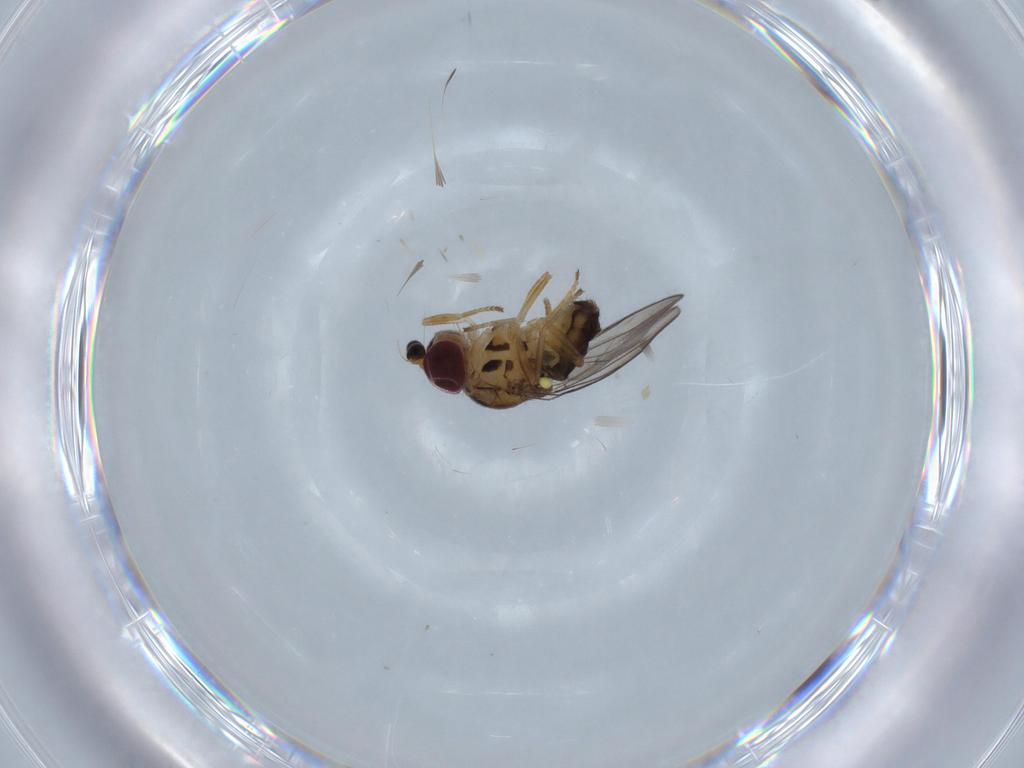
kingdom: Animalia
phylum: Arthropoda
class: Insecta
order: Diptera
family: Chloropidae
